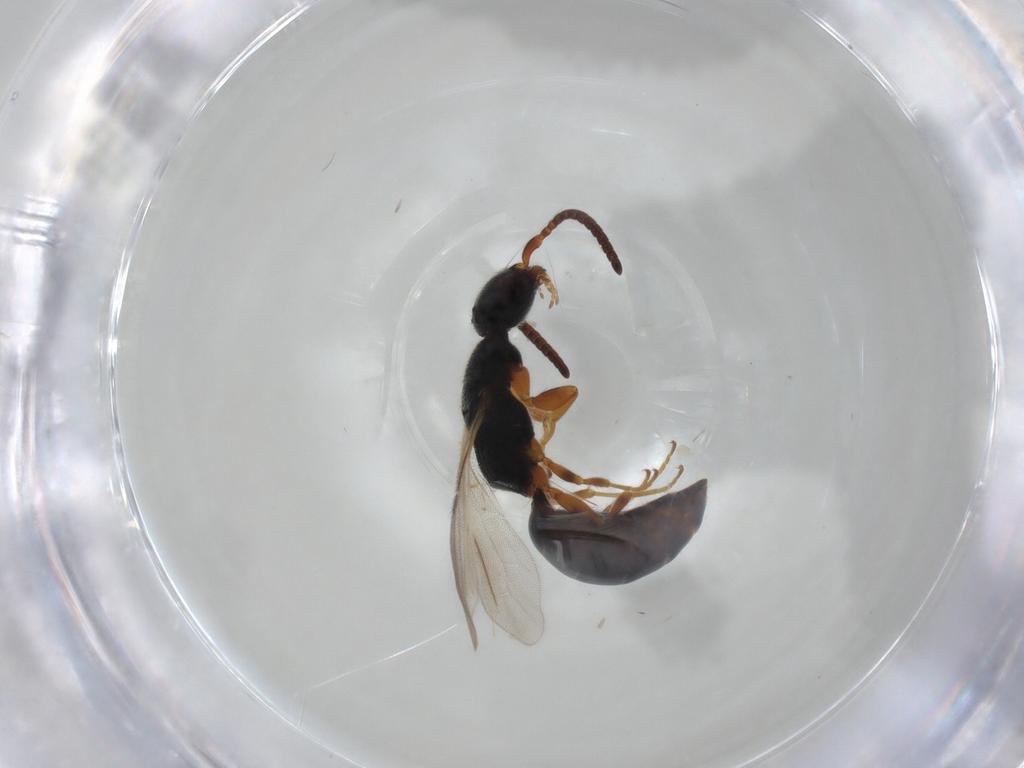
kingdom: Animalia
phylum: Arthropoda
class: Insecta
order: Hymenoptera
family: Bethylidae
